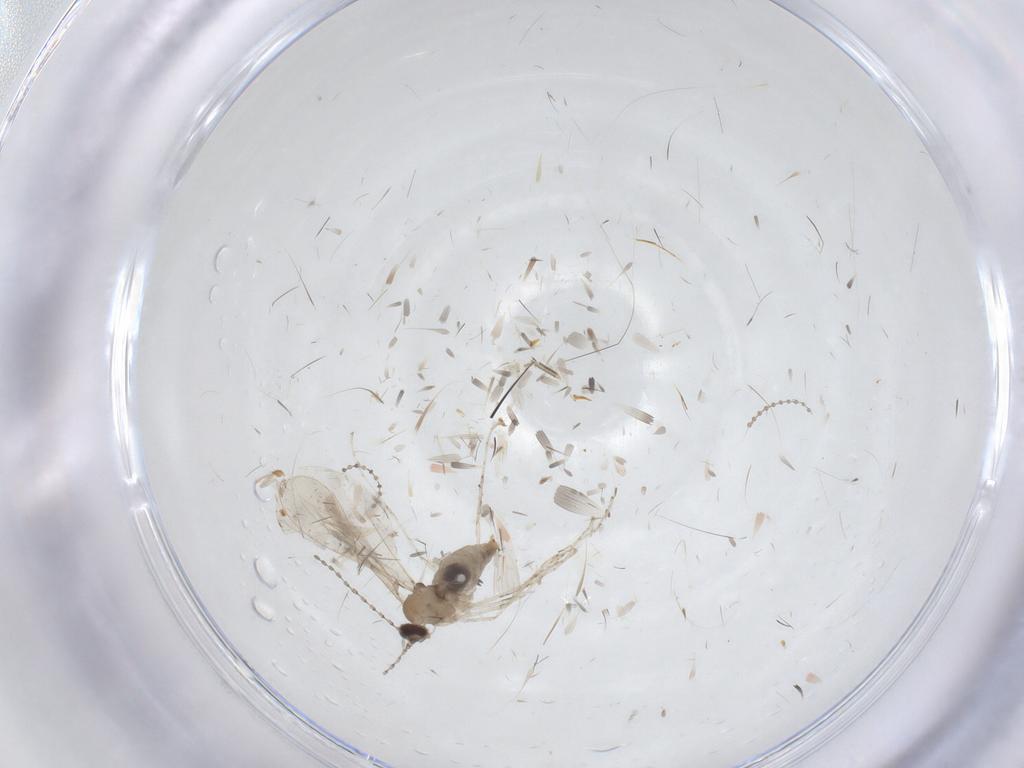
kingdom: Animalia
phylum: Arthropoda
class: Insecta
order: Diptera
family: Cecidomyiidae
